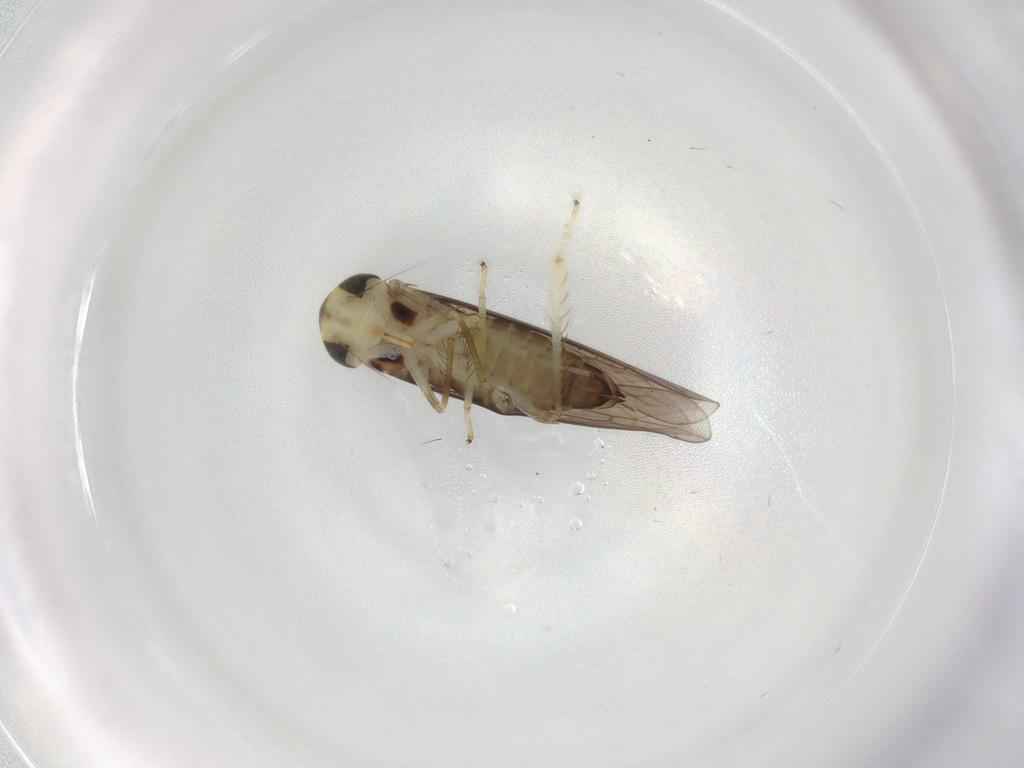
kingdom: Animalia
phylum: Arthropoda
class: Insecta
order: Hemiptera
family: Cicadellidae
